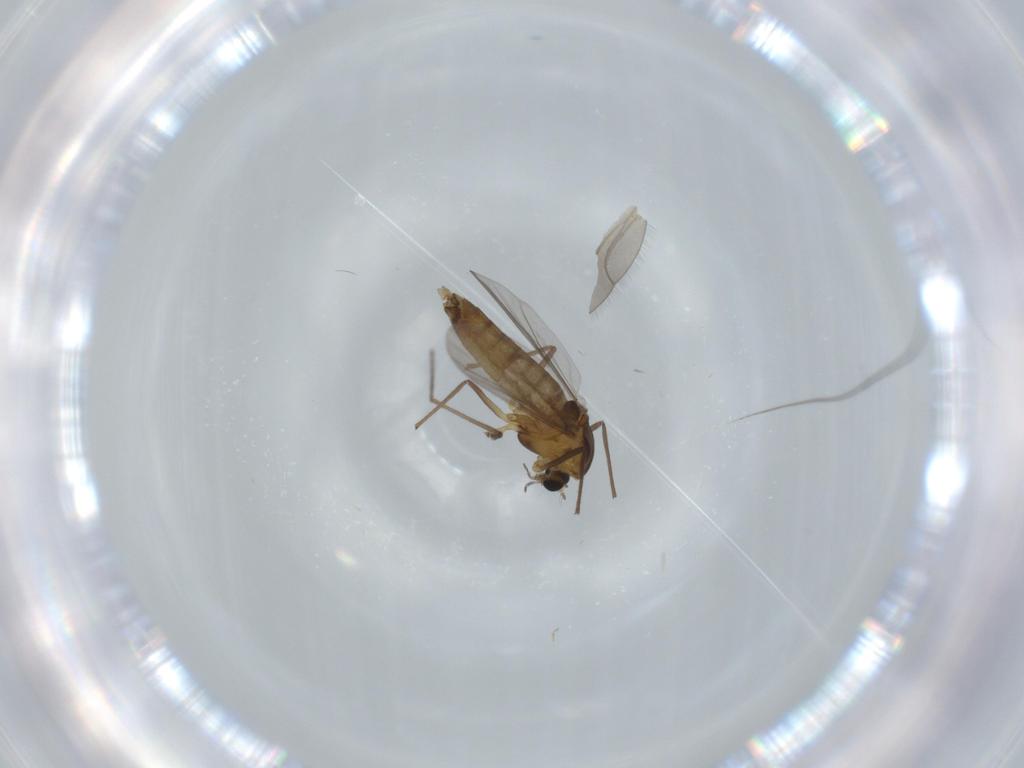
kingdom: Animalia
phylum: Arthropoda
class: Insecta
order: Diptera
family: Chironomidae
